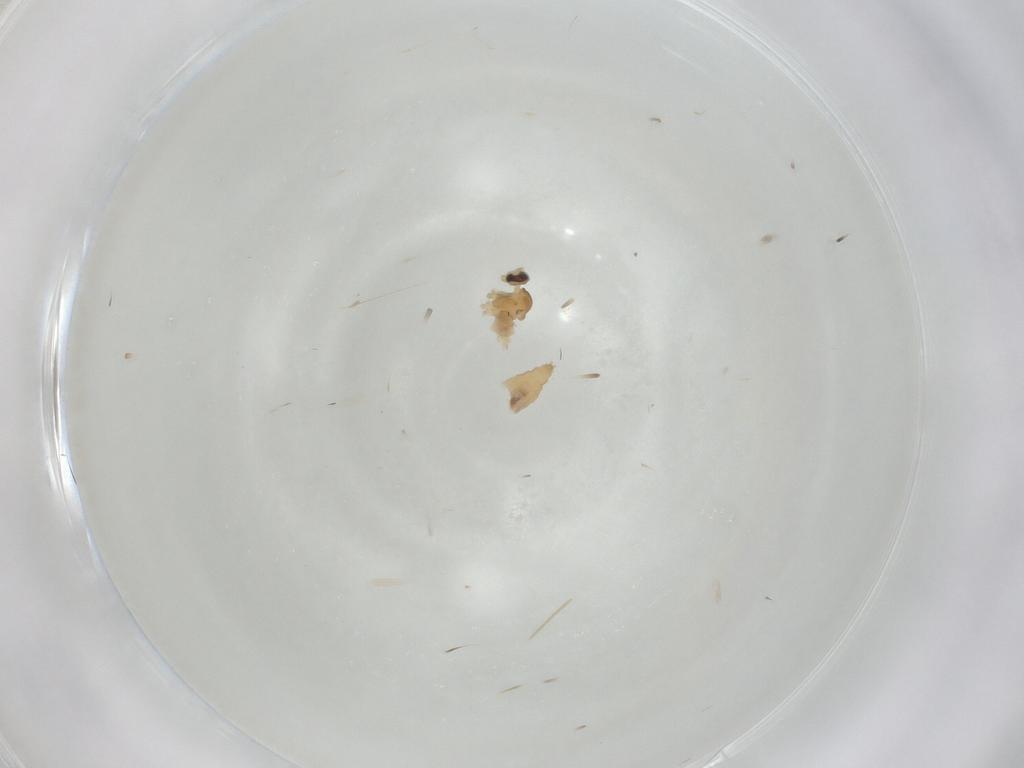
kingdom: Animalia
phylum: Arthropoda
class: Insecta
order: Diptera
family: Cecidomyiidae
